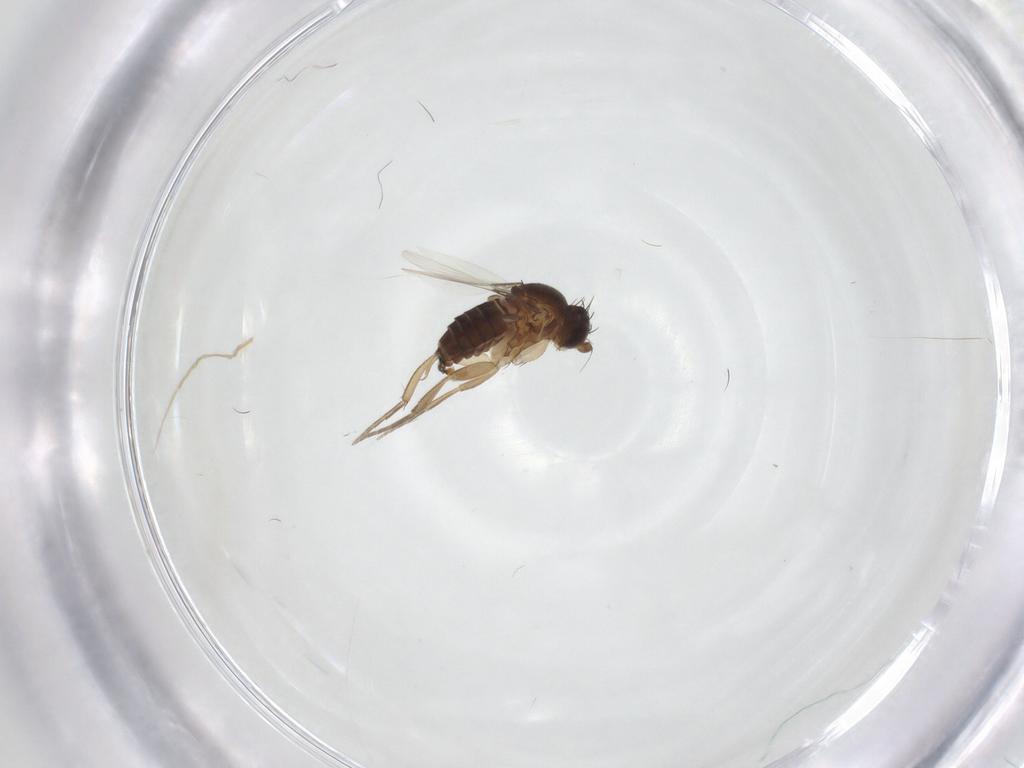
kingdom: Animalia
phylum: Arthropoda
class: Insecta
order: Diptera
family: Phoridae
